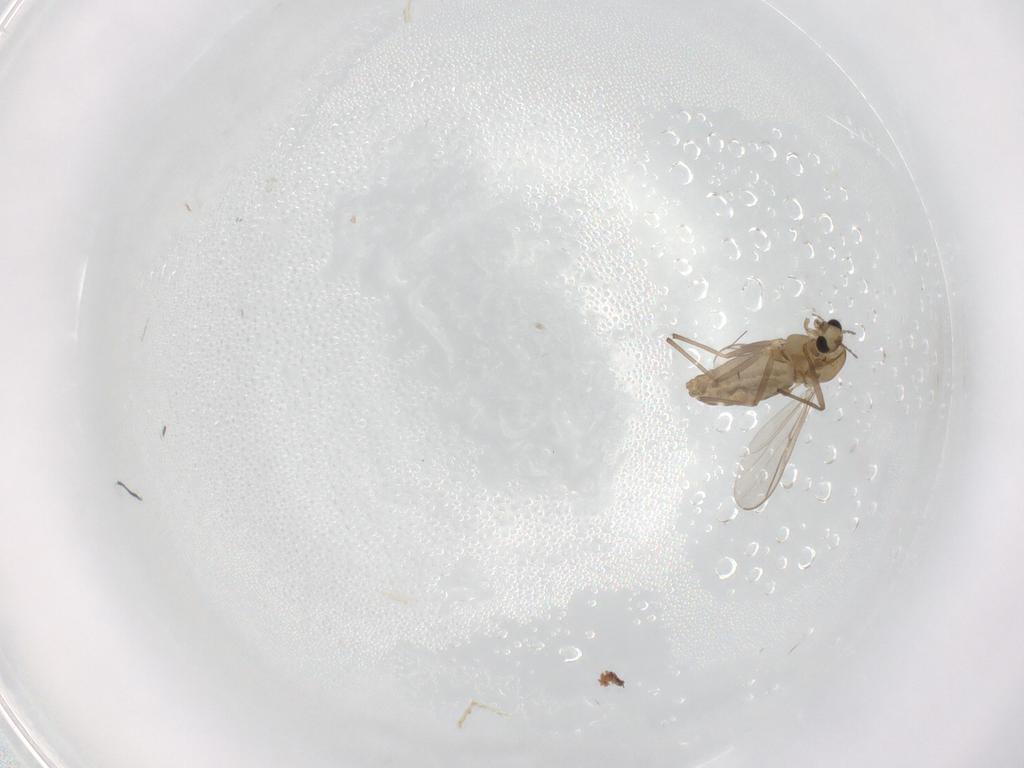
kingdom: Animalia
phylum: Arthropoda
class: Insecta
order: Diptera
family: Chironomidae
